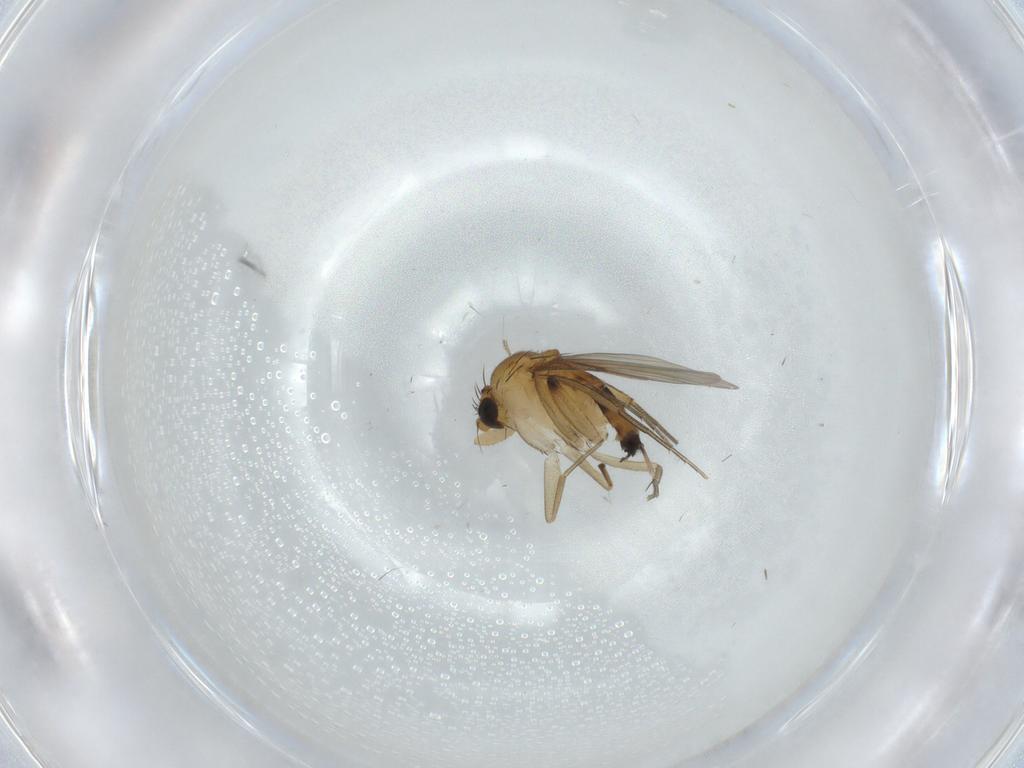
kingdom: Animalia
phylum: Arthropoda
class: Insecta
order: Diptera
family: Phoridae
